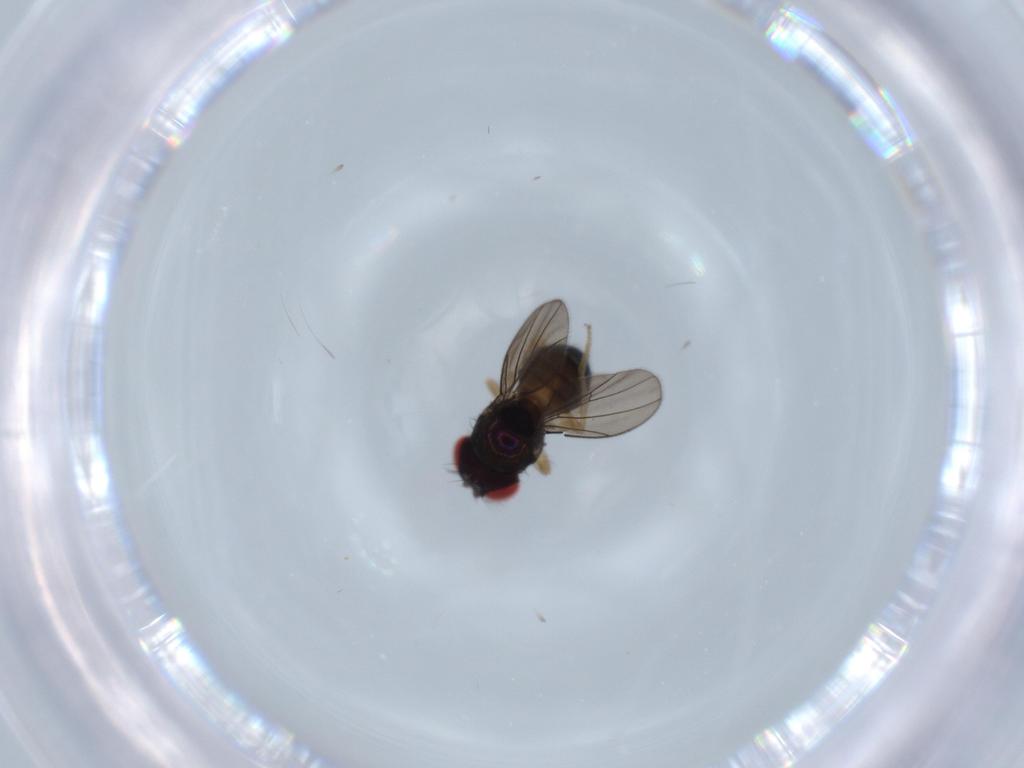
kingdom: Animalia
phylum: Arthropoda
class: Insecta
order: Diptera
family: Drosophilidae
